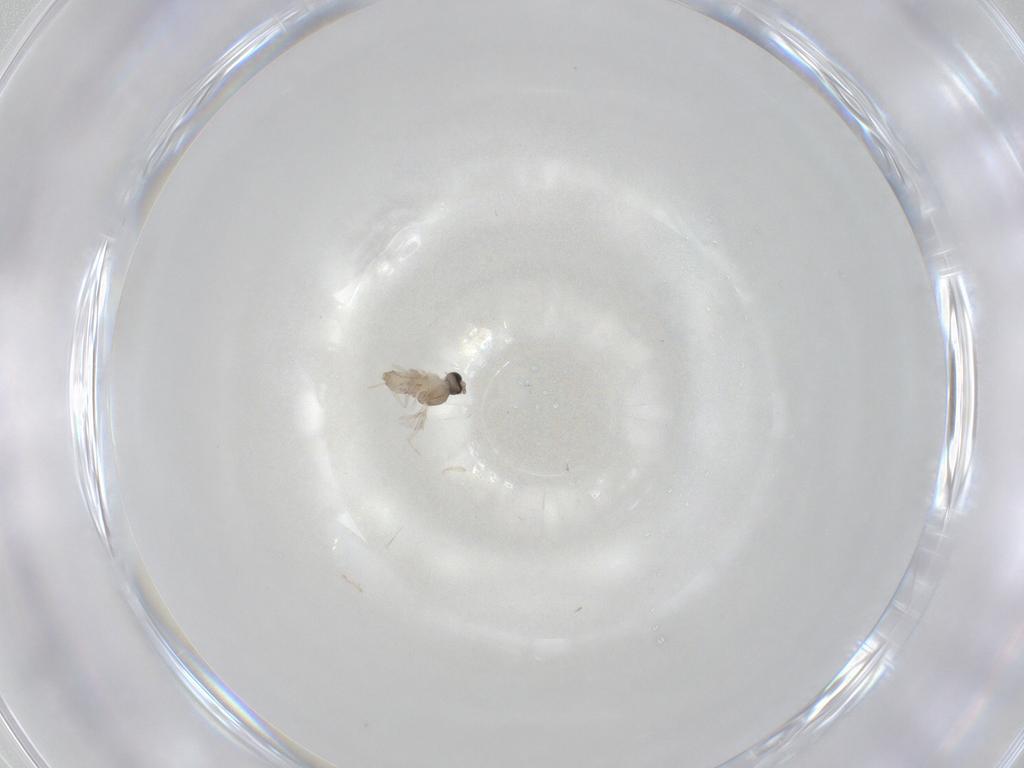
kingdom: Animalia
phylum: Arthropoda
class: Insecta
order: Diptera
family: Cecidomyiidae
